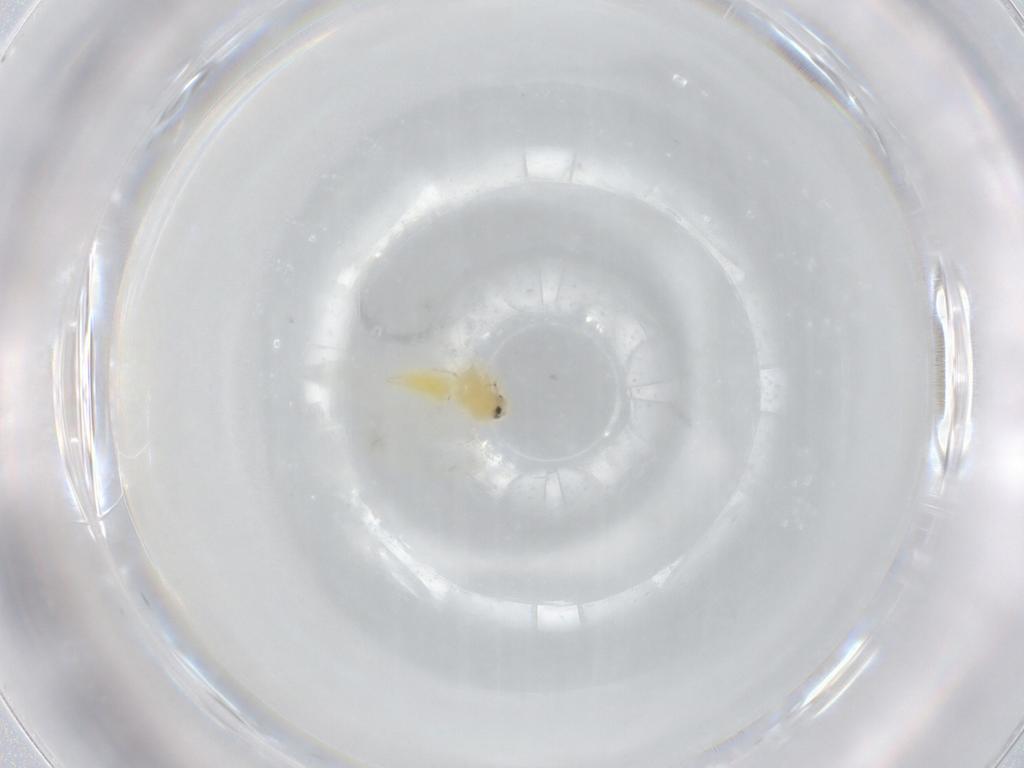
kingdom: Animalia
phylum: Arthropoda
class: Insecta
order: Hemiptera
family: Aleyrodidae
